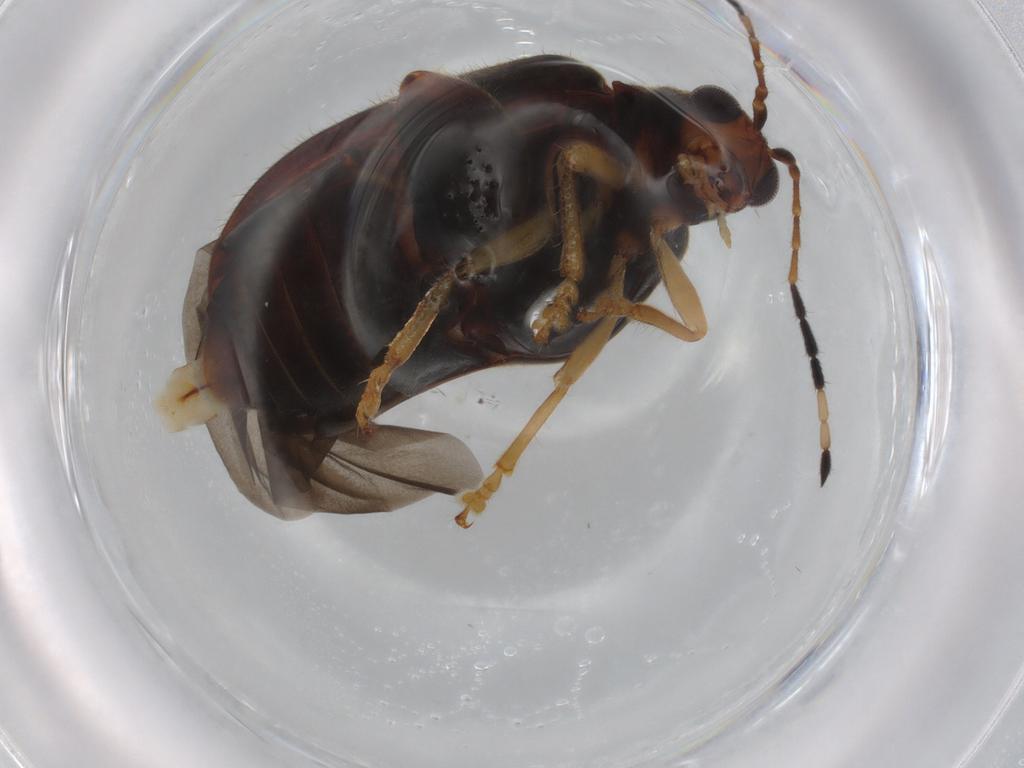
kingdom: Animalia
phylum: Arthropoda
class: Insecta
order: Coleoptera
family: Chrysomelidae
